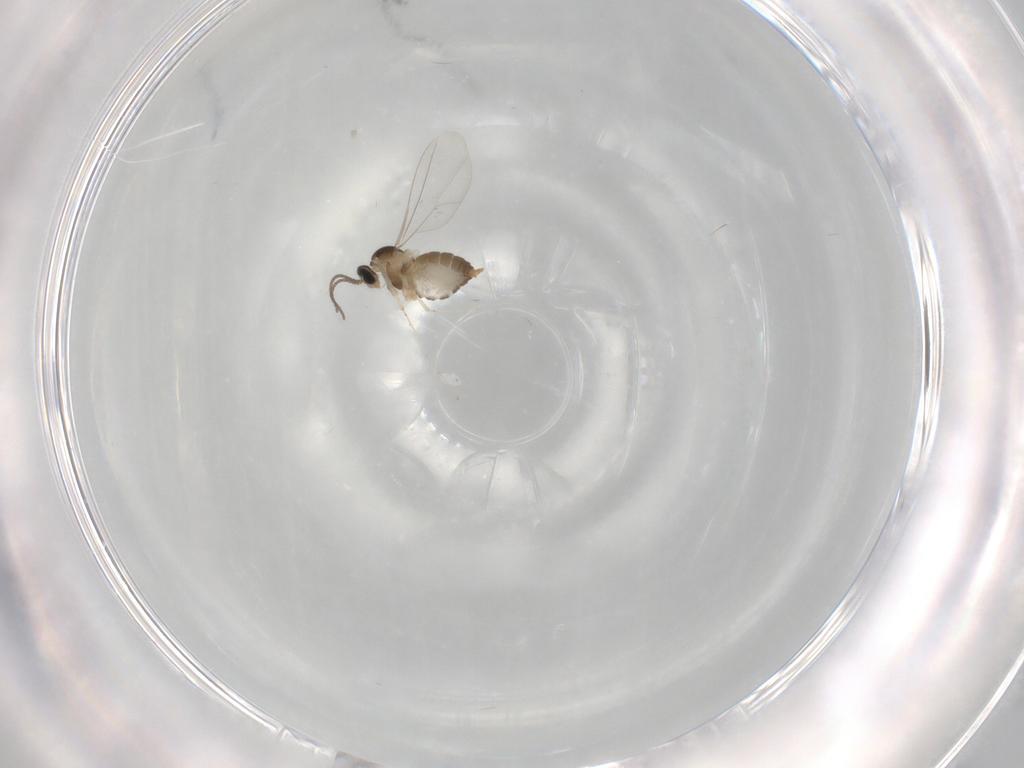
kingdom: Animalia
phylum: Arthropoda
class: Insecta
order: Diptera
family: Cecidomyiidae
